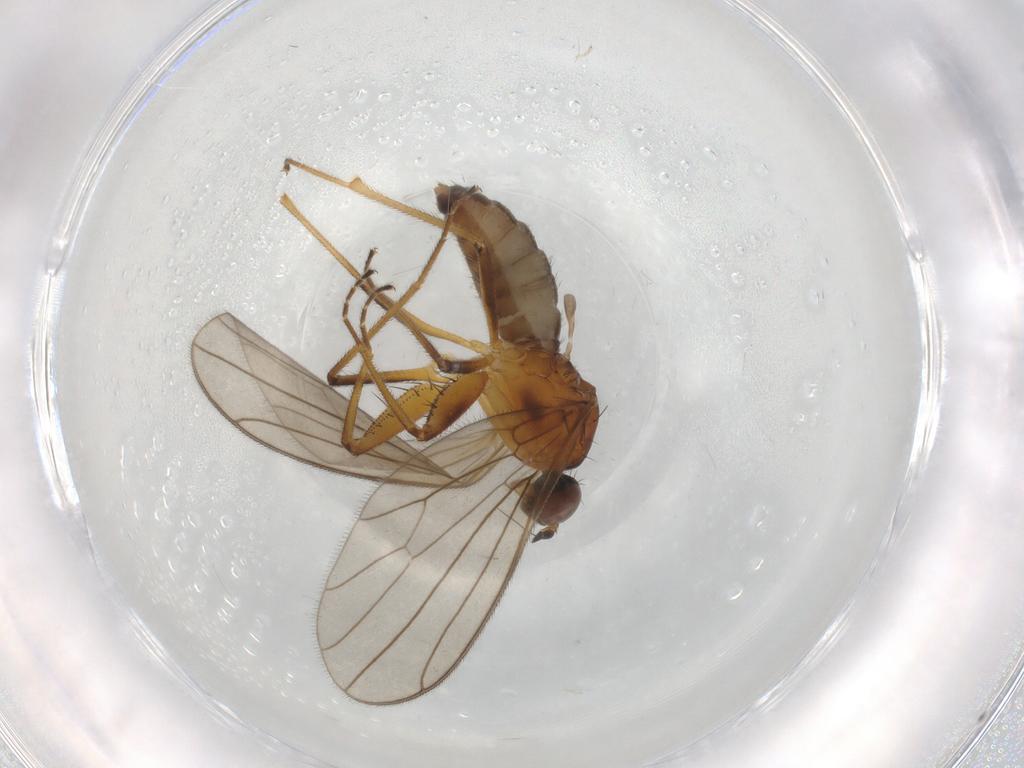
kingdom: Animalia
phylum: Arthropoda
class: Insecta
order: Diptera
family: Empididae
